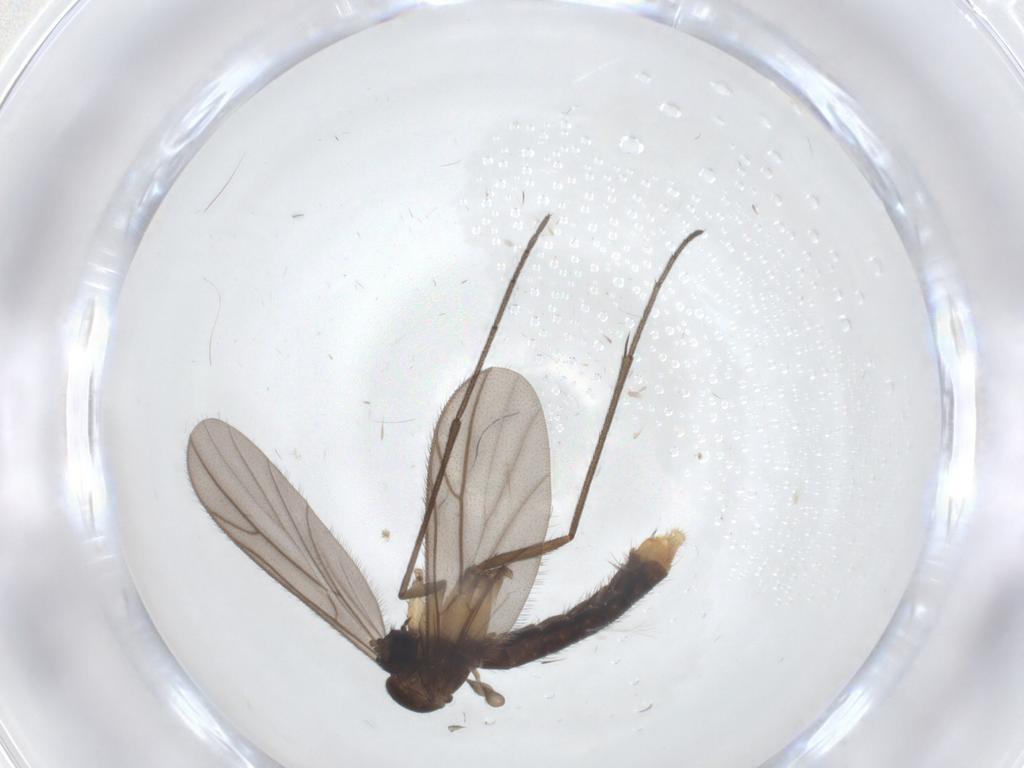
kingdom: Animalia
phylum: Arthropoda
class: Insecta
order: Diptera
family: Ditomyiidae
